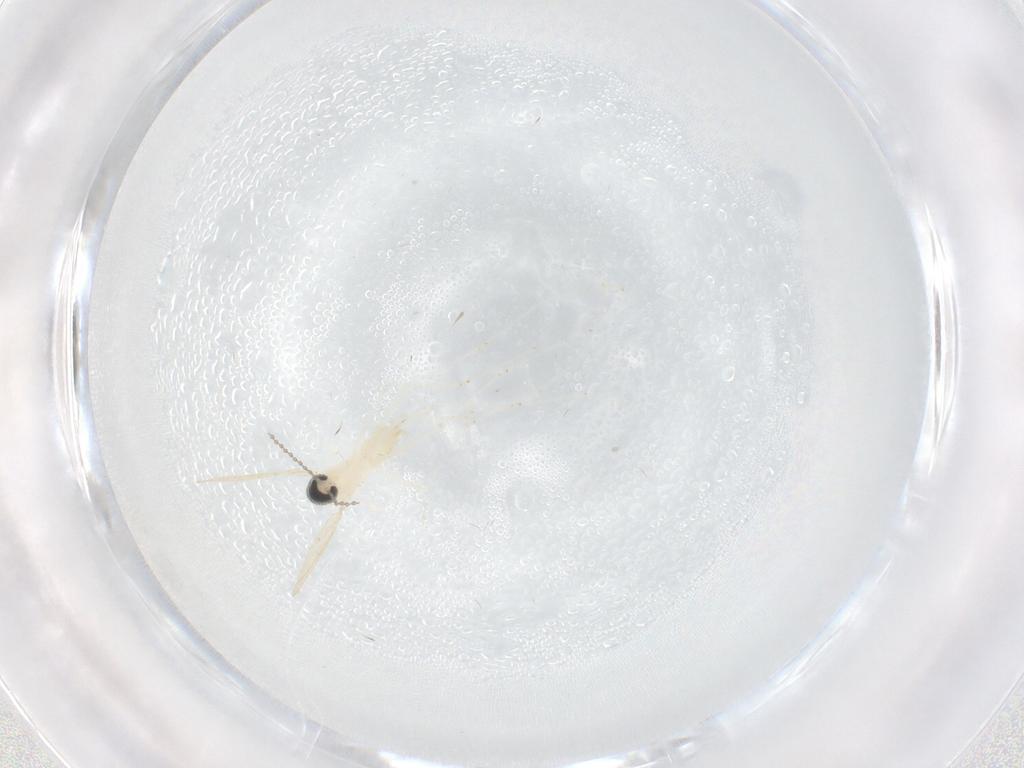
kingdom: Animalia
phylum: Arthropoda
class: Insecta
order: Diptera
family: Cecidomyiidae
